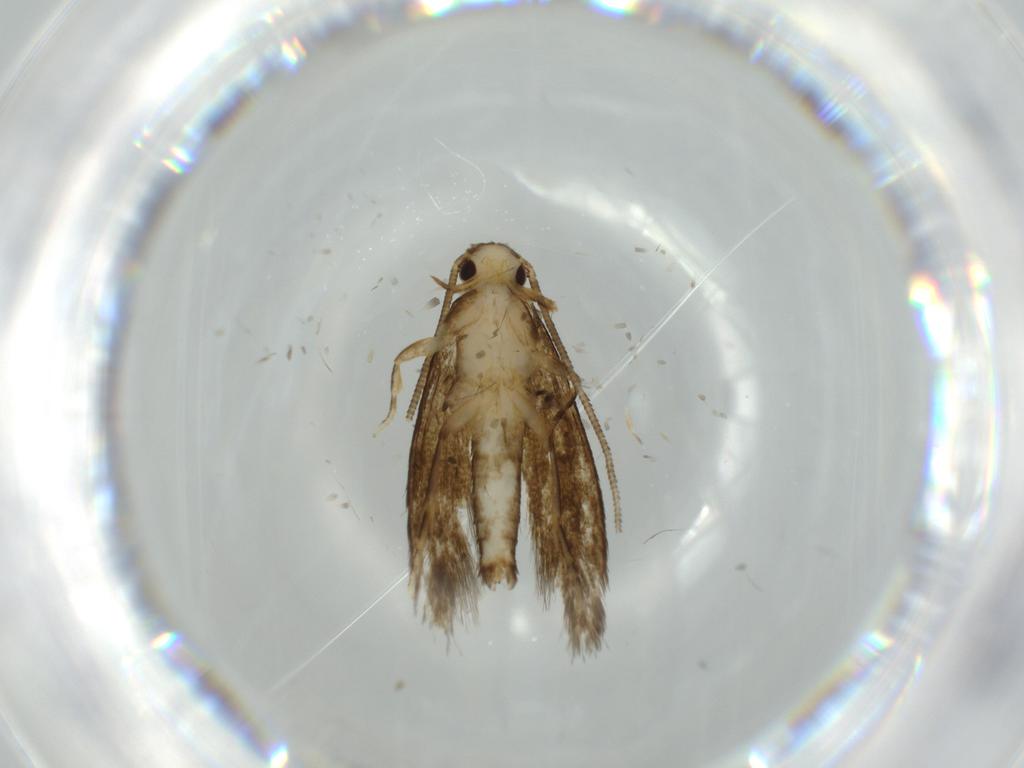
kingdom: Animalia
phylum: Arthropoda
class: Insecta
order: Lepidoptera
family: Tineidae
